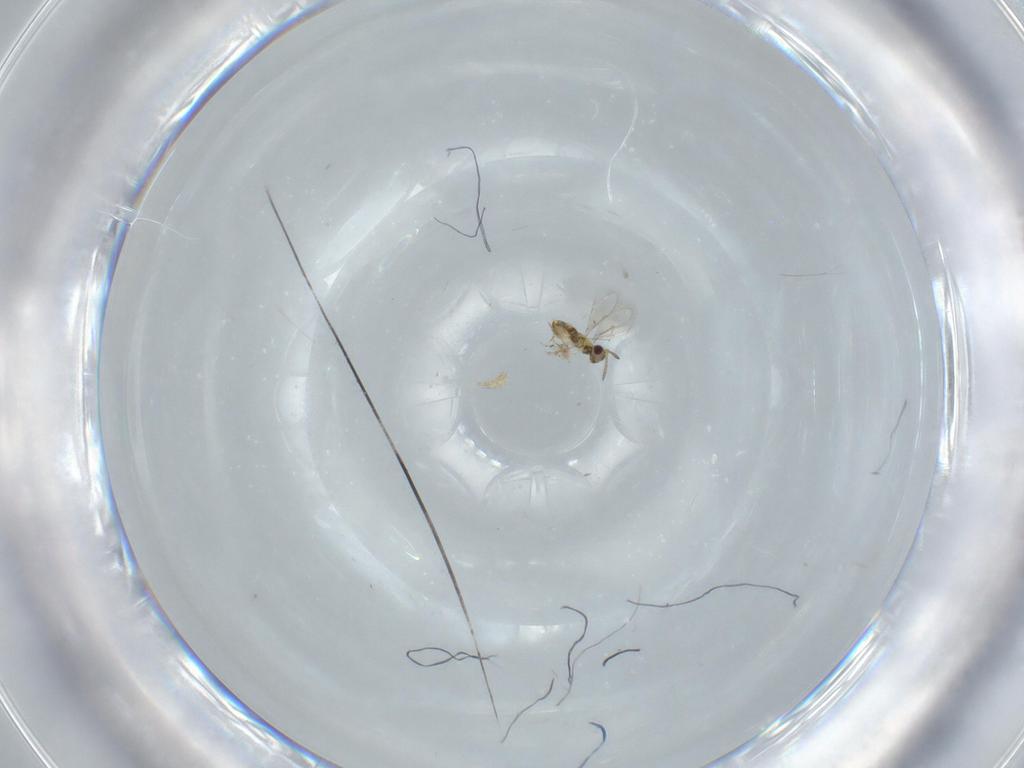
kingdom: Animalia
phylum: Arthropoda
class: Insecta
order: Hymenoptera
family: Aphelinidae
